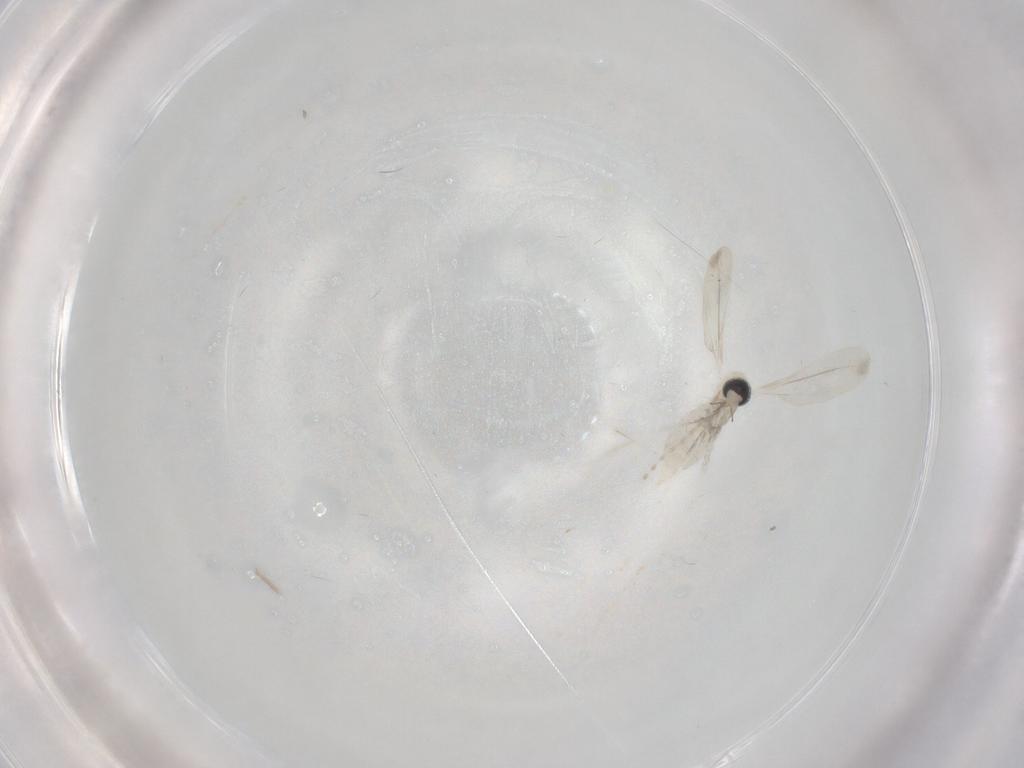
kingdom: Animalia
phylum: Arthropoda
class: Insecta
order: Diptera
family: Cecidomyiidae
